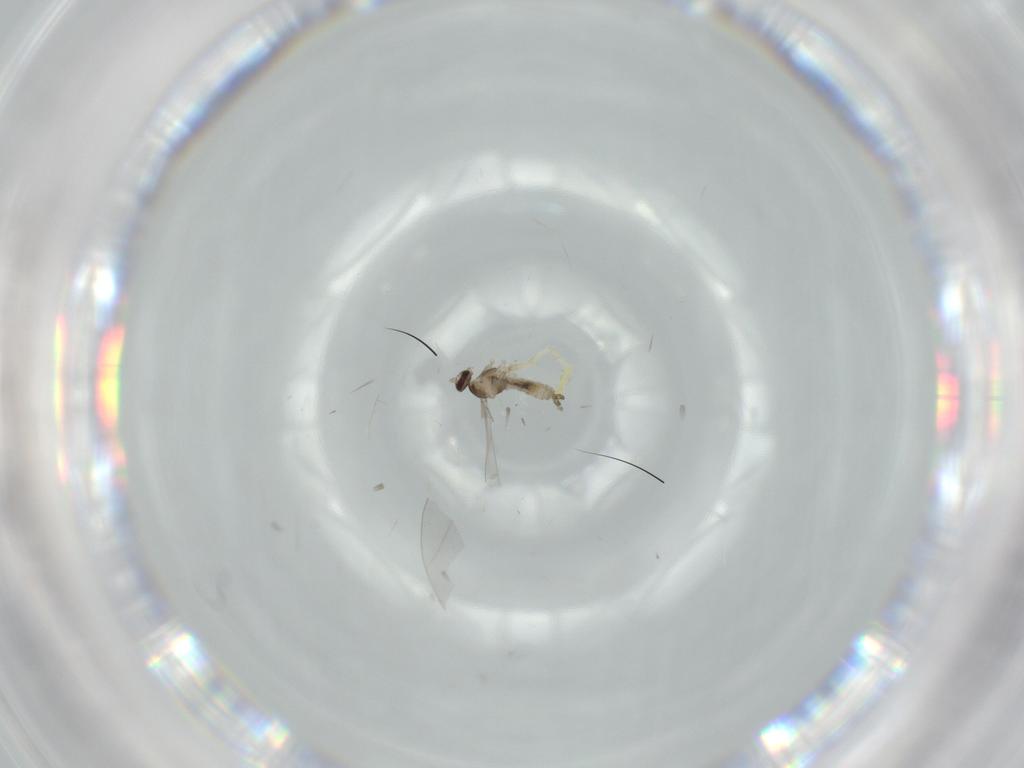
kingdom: Animalia
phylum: Arthropoda
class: Insecta
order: Diptera
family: Cecidomyiidae
